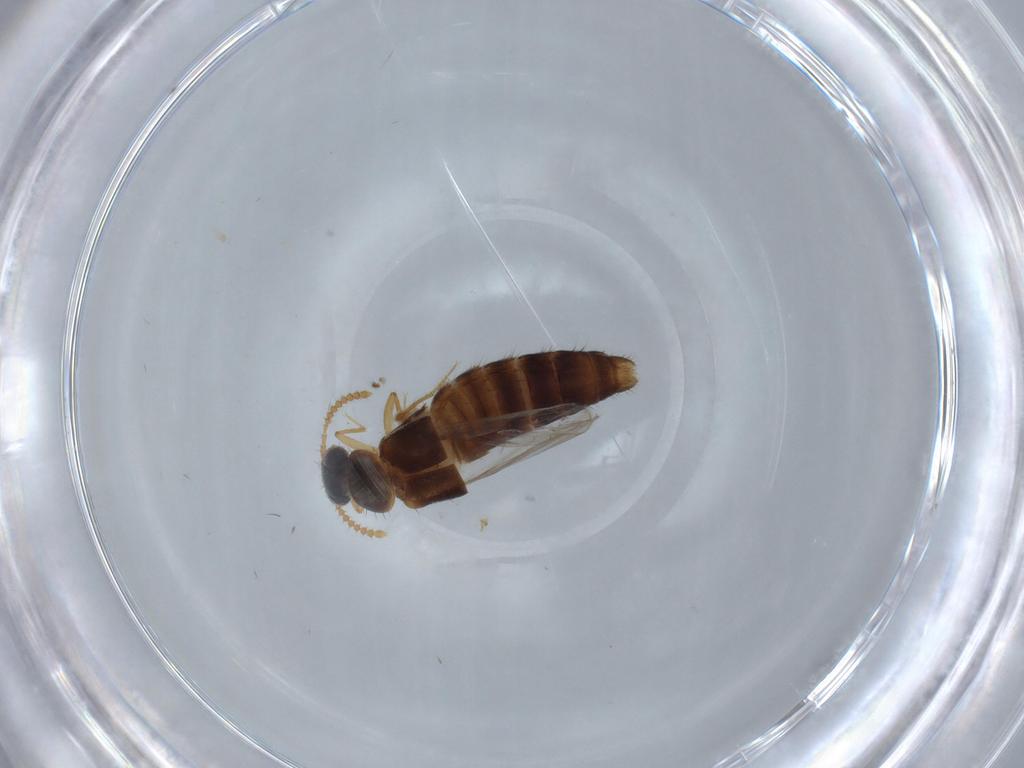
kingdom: Animalia
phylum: Arthropoda
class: Insecta
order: Coleoptera
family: Staphylinidae
